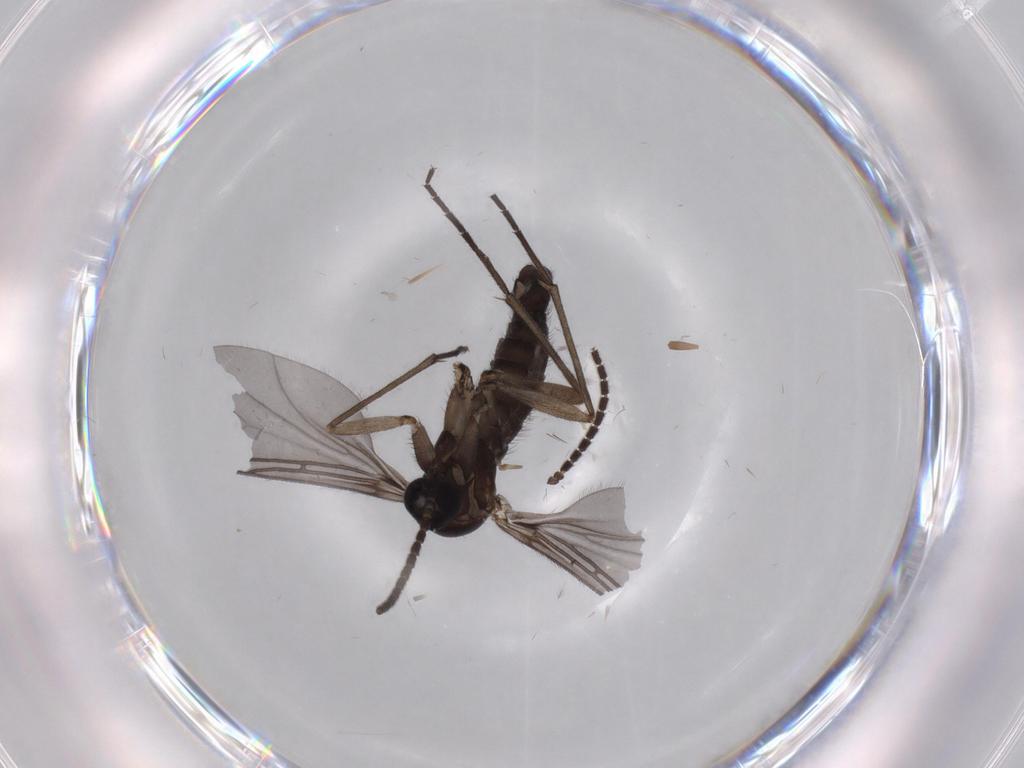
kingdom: Animalia
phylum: Arthropoda
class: Insecta
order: Diptera
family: Sciaridae
